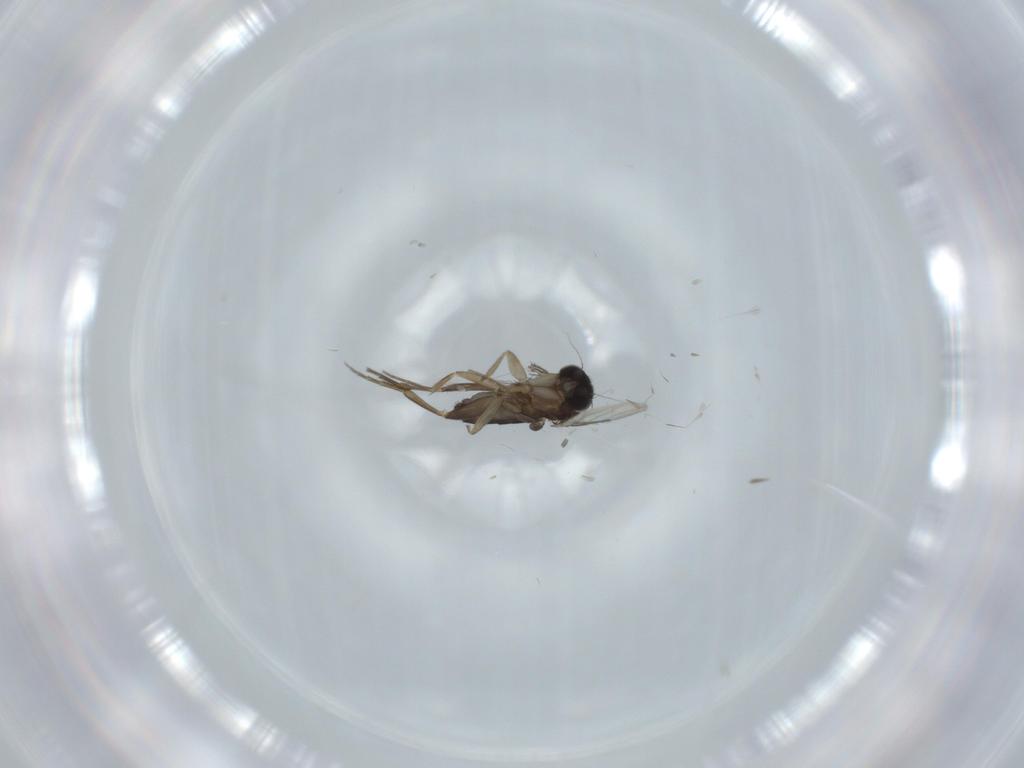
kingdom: Animalia
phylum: Arthropoda
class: Insecta
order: Diptera
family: Phoridae
